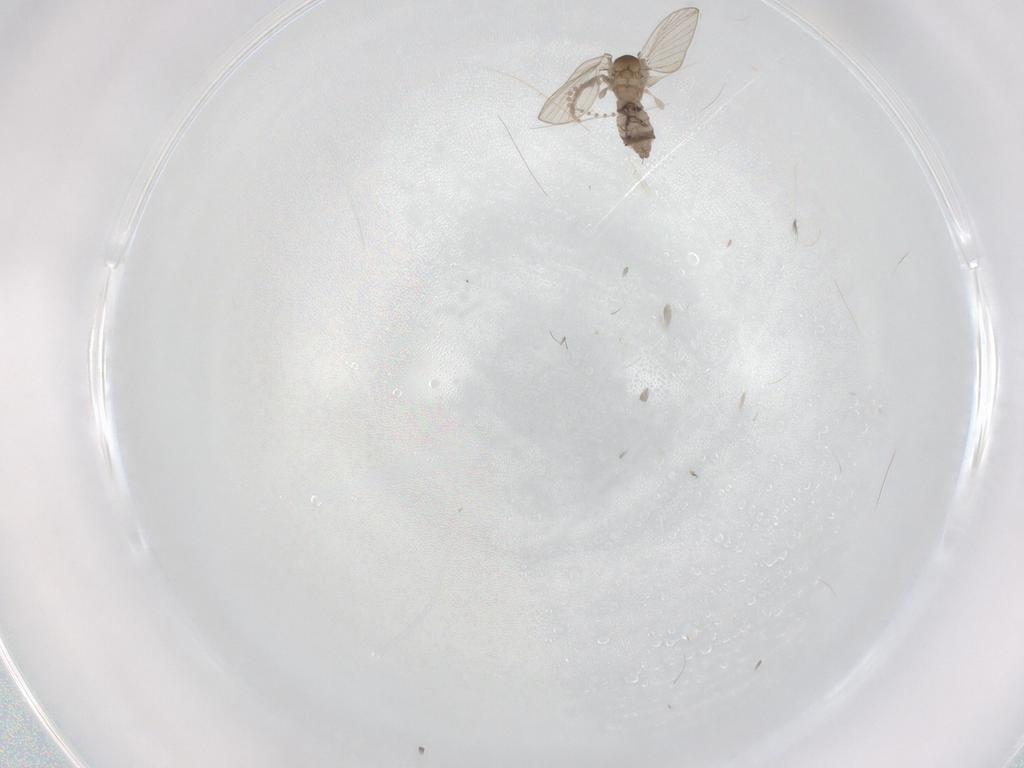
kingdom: Animalia
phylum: Arthropoda
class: Insecta
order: Diptera
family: Psychodidae
